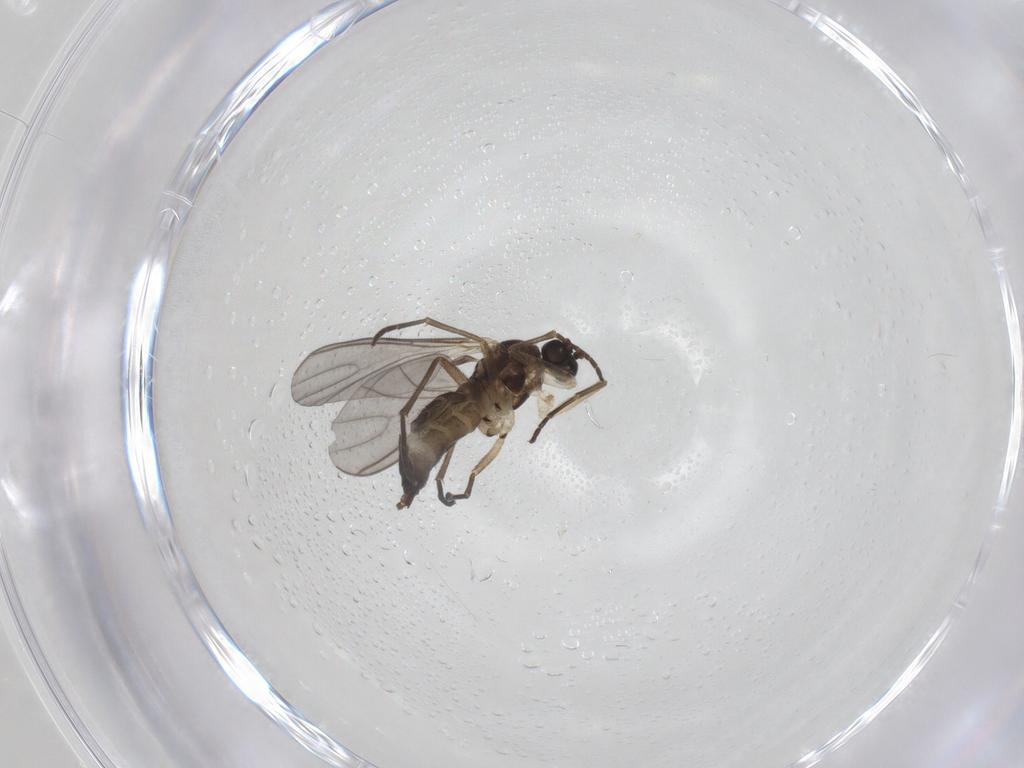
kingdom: Animalia
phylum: Arthropoda
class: Insecta
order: Diptera
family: Sciaridae
